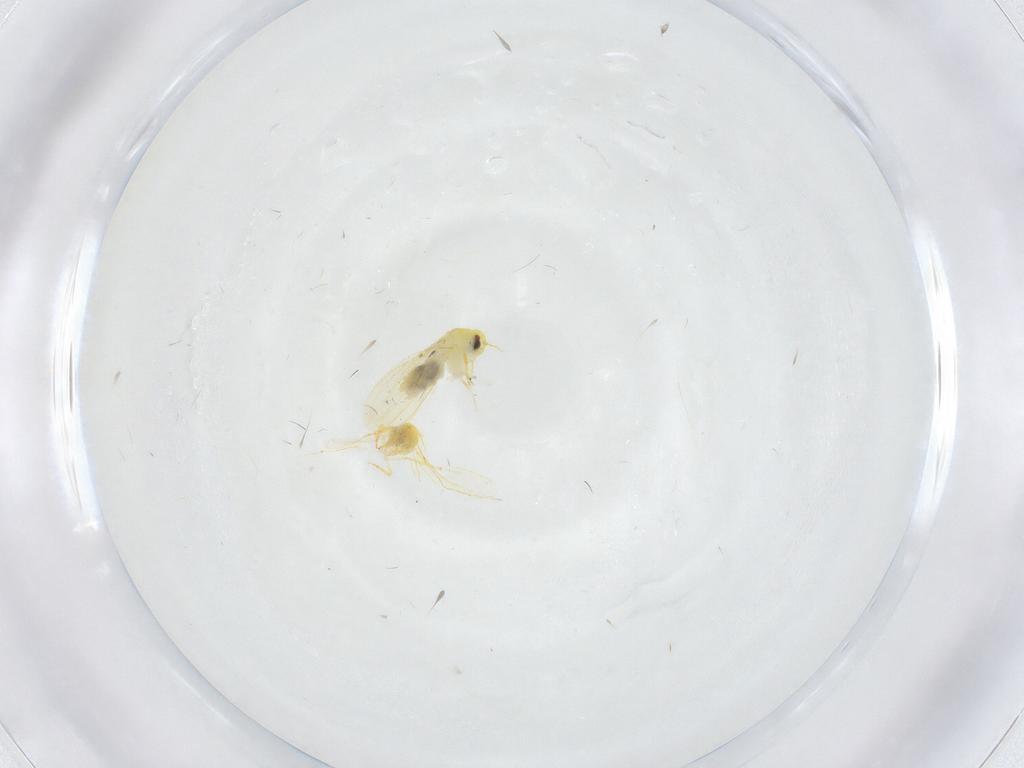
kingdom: Animalia
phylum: Arthropoda
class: Insecta
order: Hemiptera
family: Aleyrodidae
